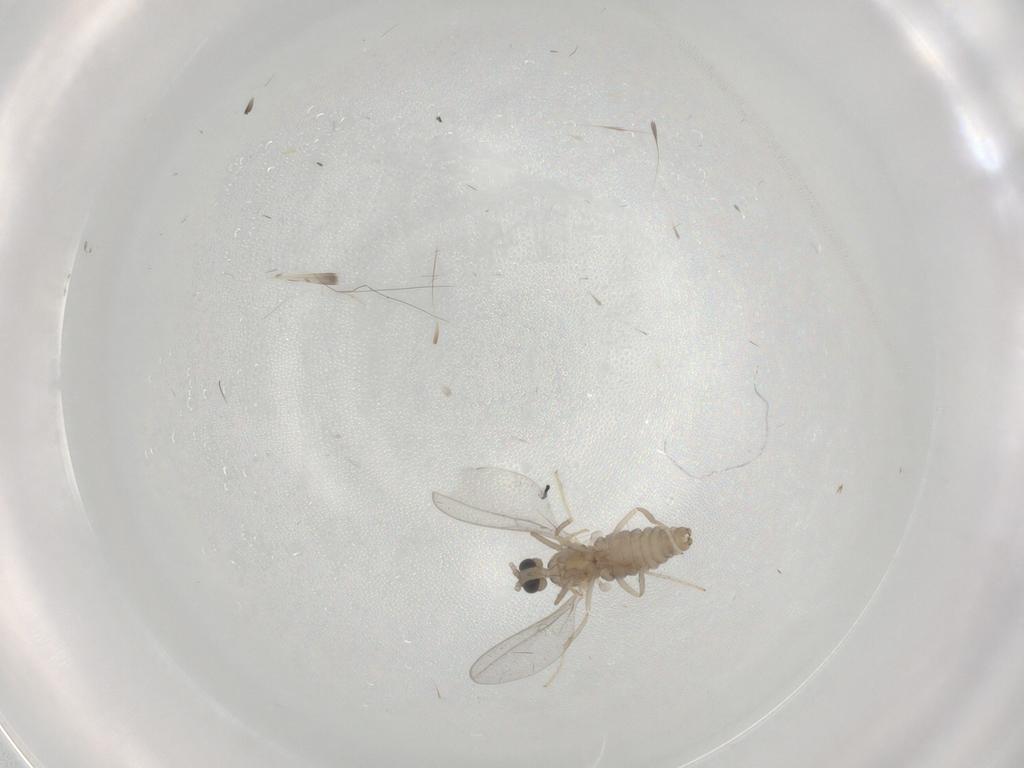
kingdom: Animalia
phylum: Arthropoda
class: Insecta
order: Diptera
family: Cecidomyiidae
